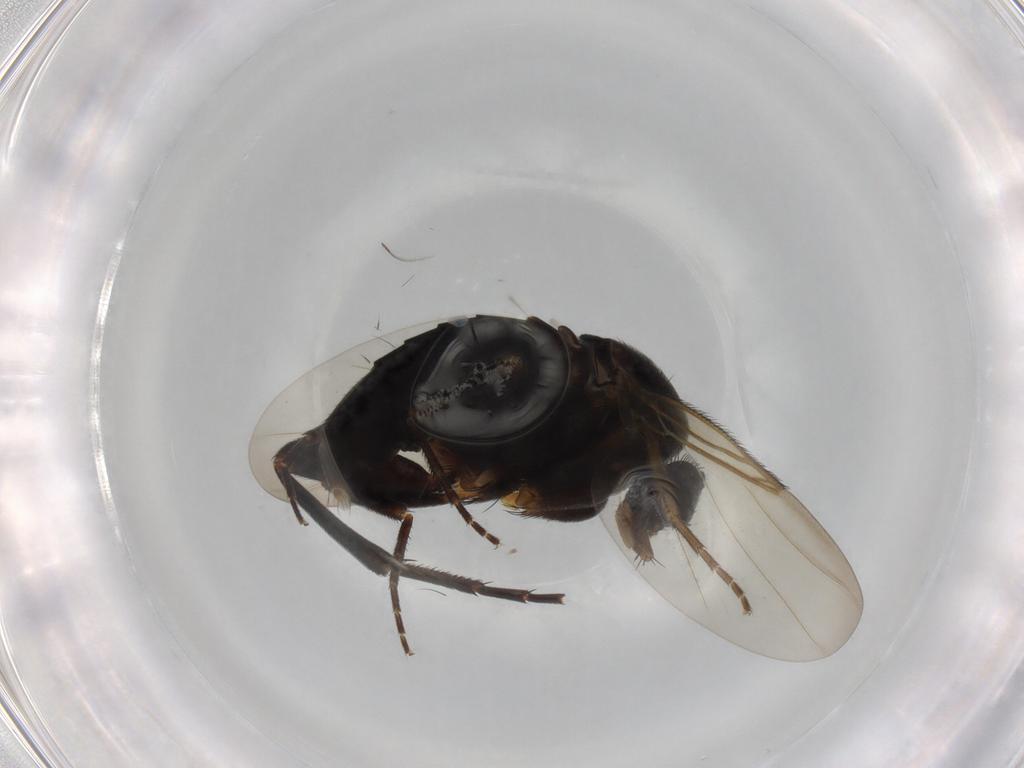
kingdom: Animalia
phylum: Arthropoda
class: Insecta
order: Diptera
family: Phoridae
